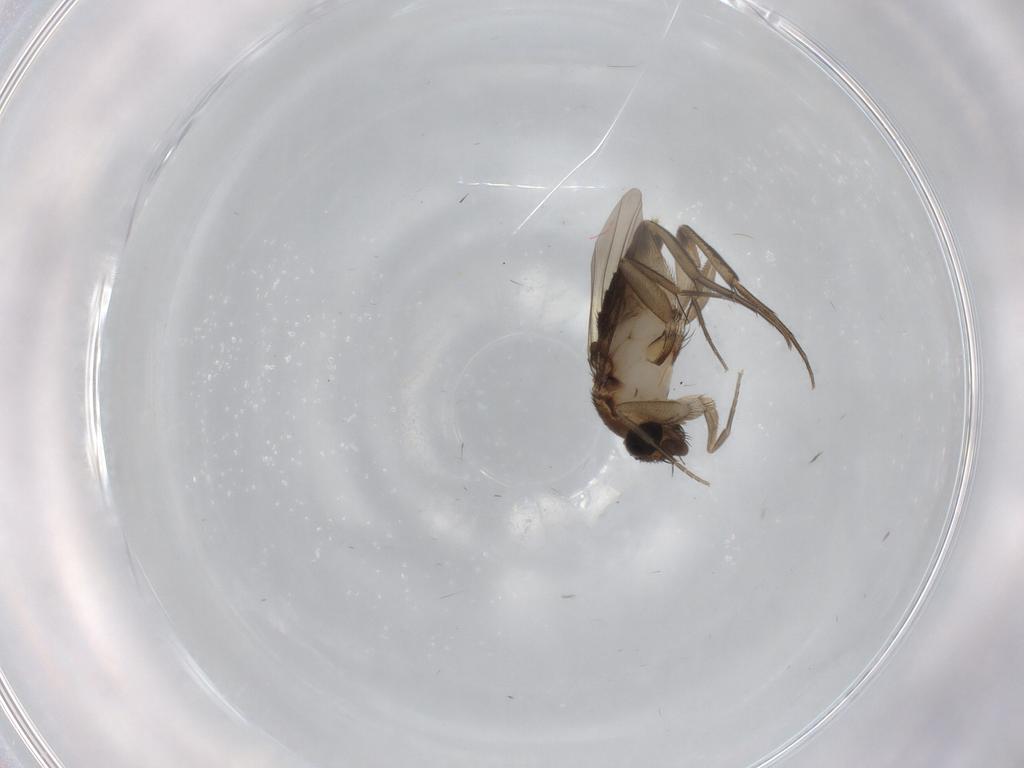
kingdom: Animalia
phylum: Arthropoda
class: Insecta
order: Diptera
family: Phoridae
